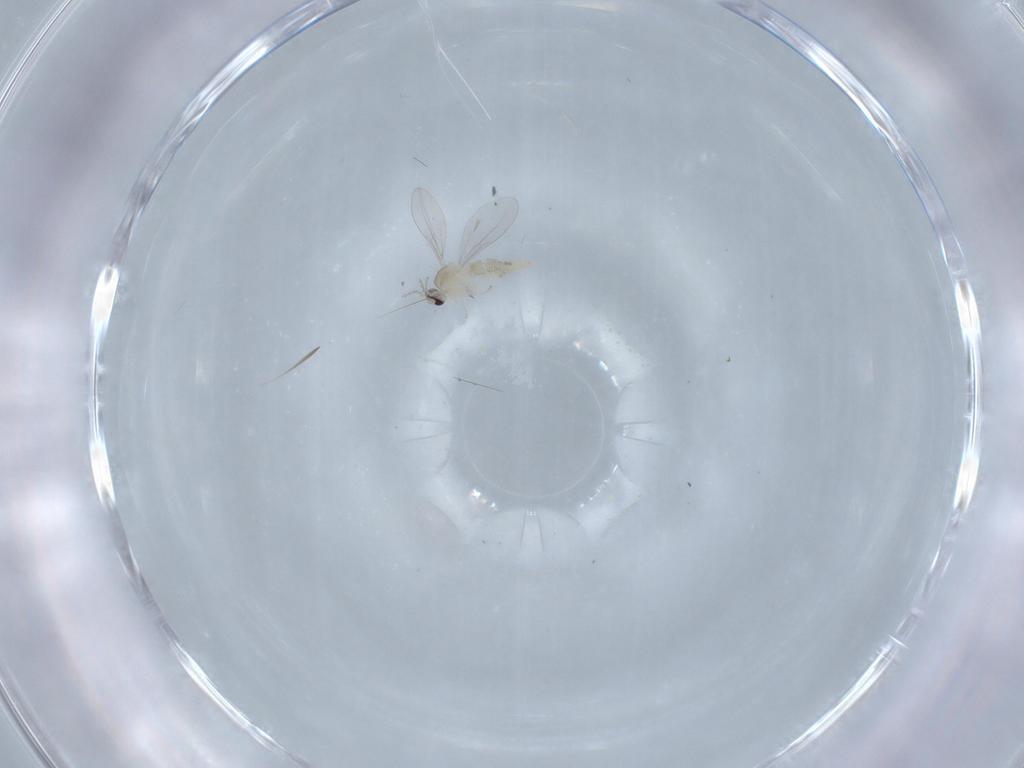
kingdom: Animalia
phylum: Arthropoda
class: Insecta
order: Diptera
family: Cecidomyiidae
